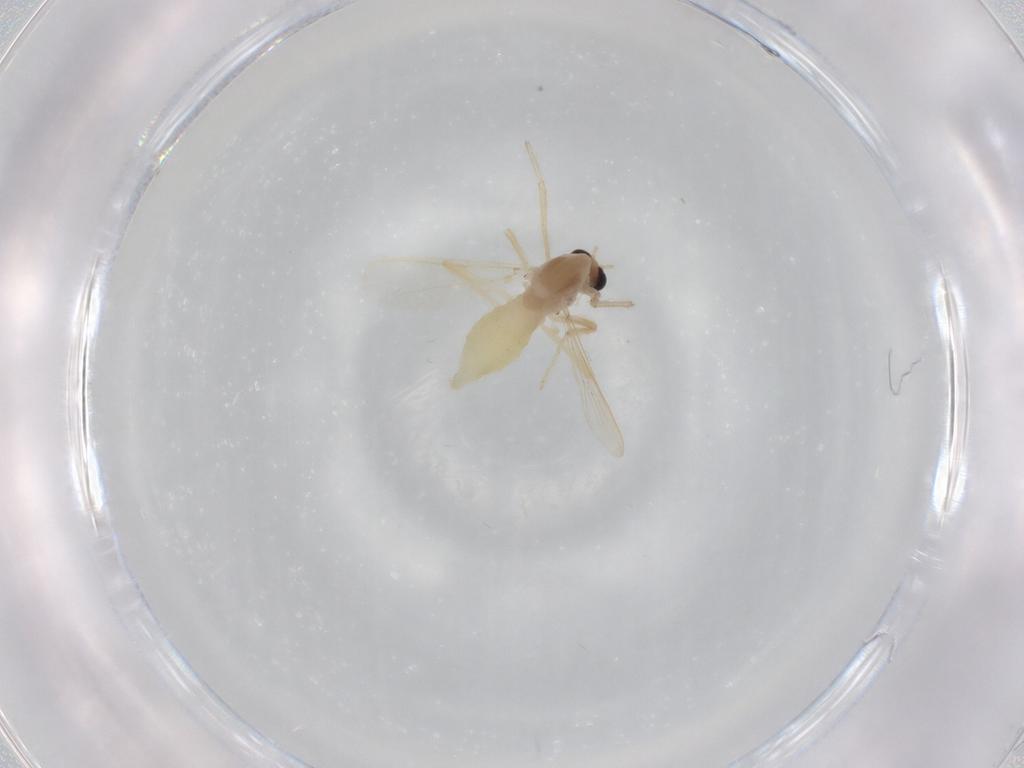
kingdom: Animalia
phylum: Arthropoda
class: Insecta
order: Diptera
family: Chironomidae
